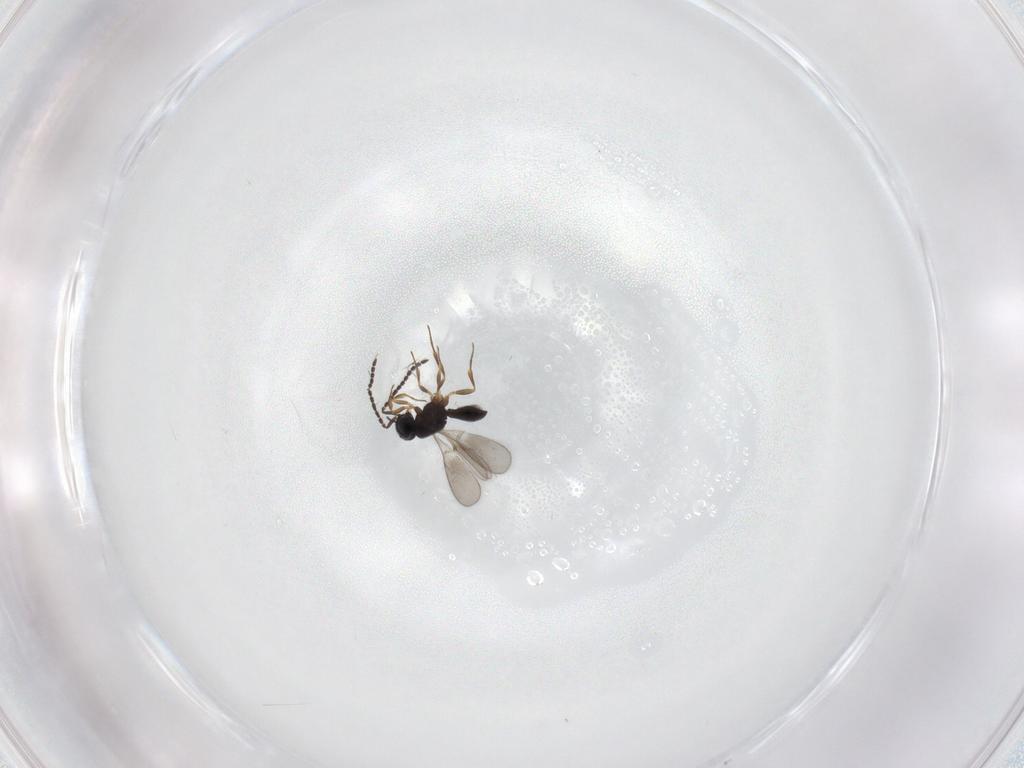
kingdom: Animalia
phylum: Arthropoda
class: Insecta
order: Hymenoptera
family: Scelionidae
